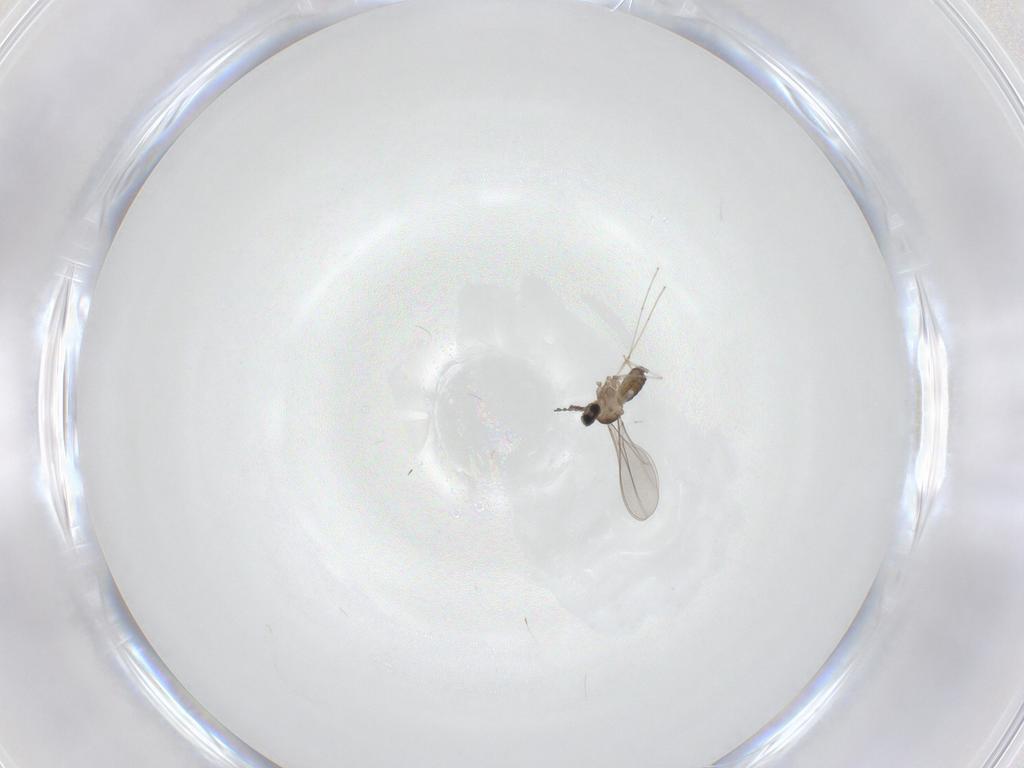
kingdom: Animalia
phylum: Arthropoda
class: Insecta
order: Diptera
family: Cecidomyiidae
